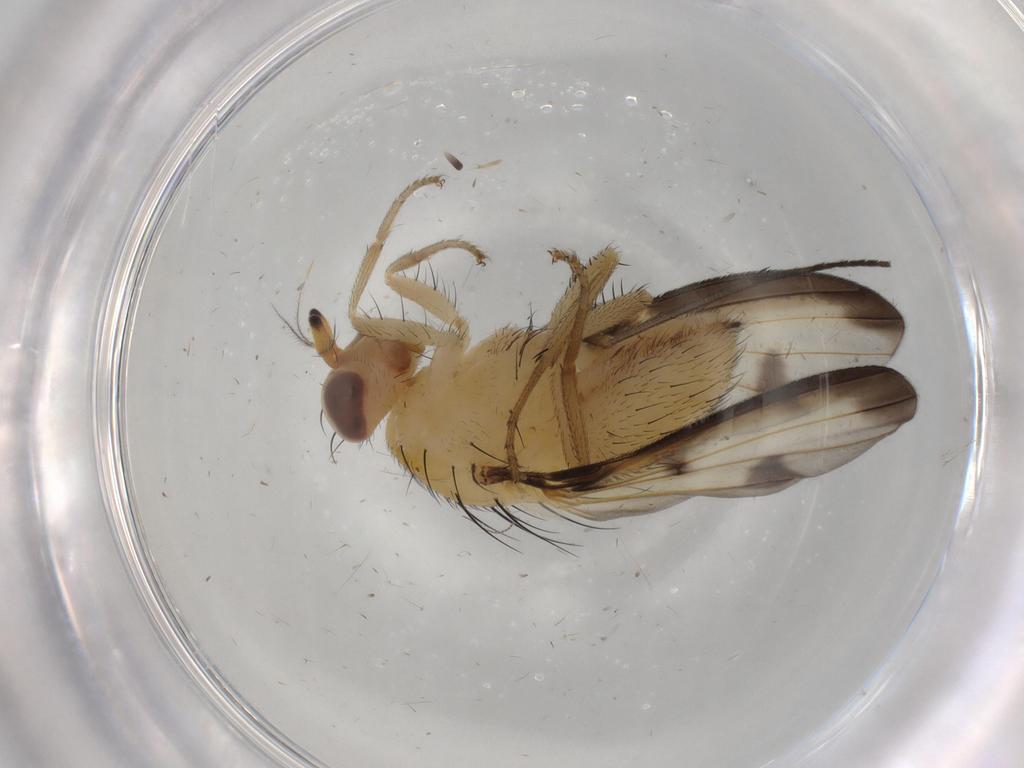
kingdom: Animalia
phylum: Arthropoda
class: Insecta
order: Diptera
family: Lauxaniidae
